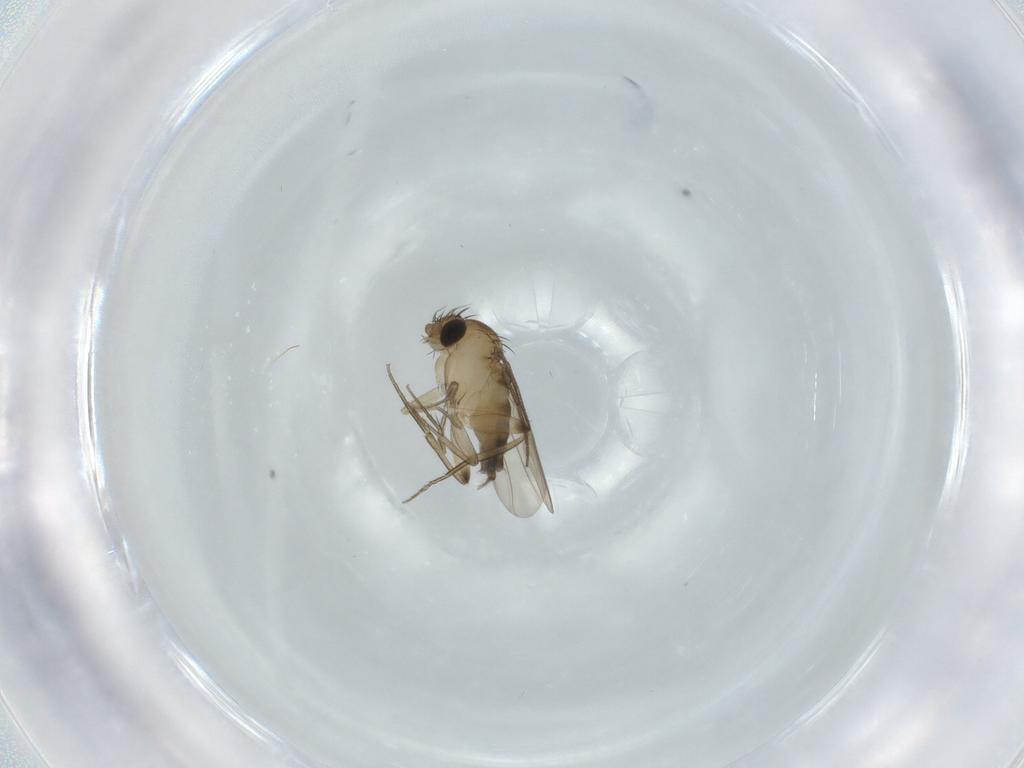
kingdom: Animalia
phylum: Arthropoda
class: Insecta
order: Diptera
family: Phoridae
